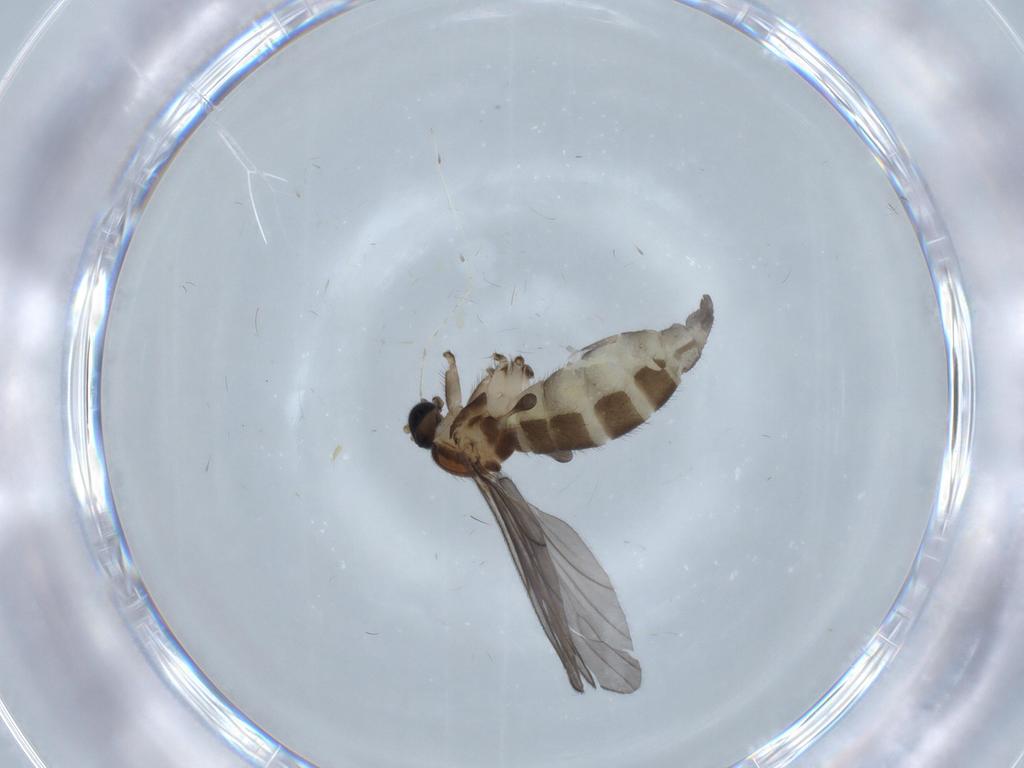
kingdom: Animalia
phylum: Arthropoda
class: Insecta
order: Diptera
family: Sciaridae
